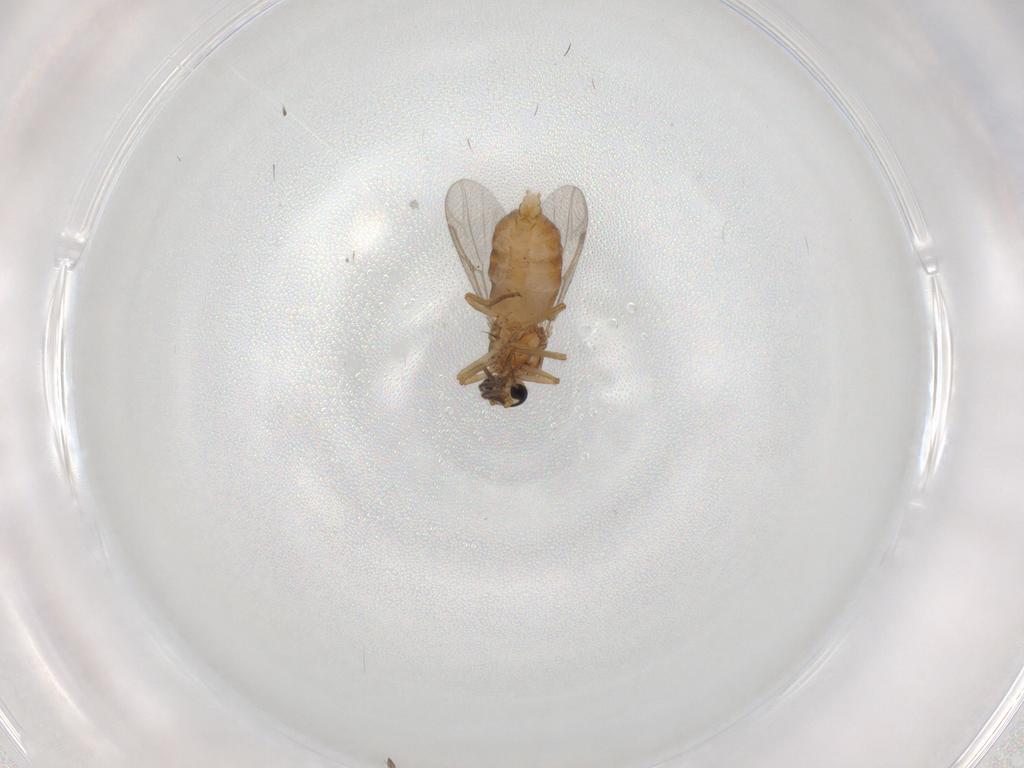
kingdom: Animalia
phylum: Arthropoda
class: Insecta
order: Diptera
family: Ceratopogonidae
